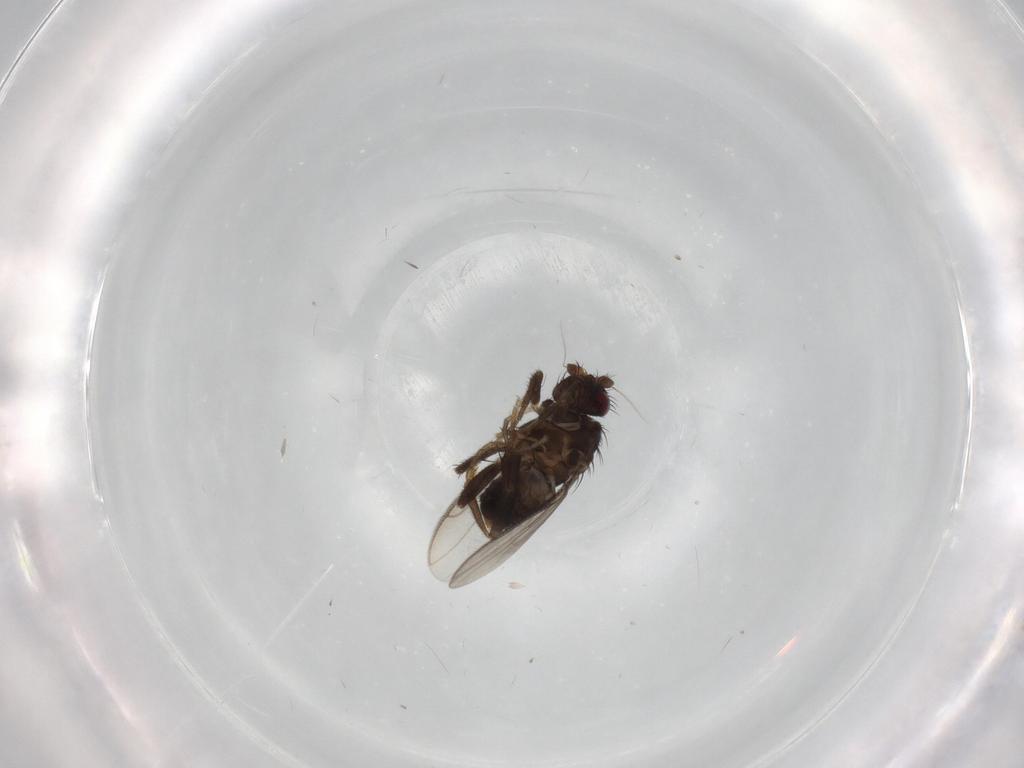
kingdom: Animalia
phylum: Arthropoda
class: Insecta
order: Diptera
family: Sphaeroceridae
